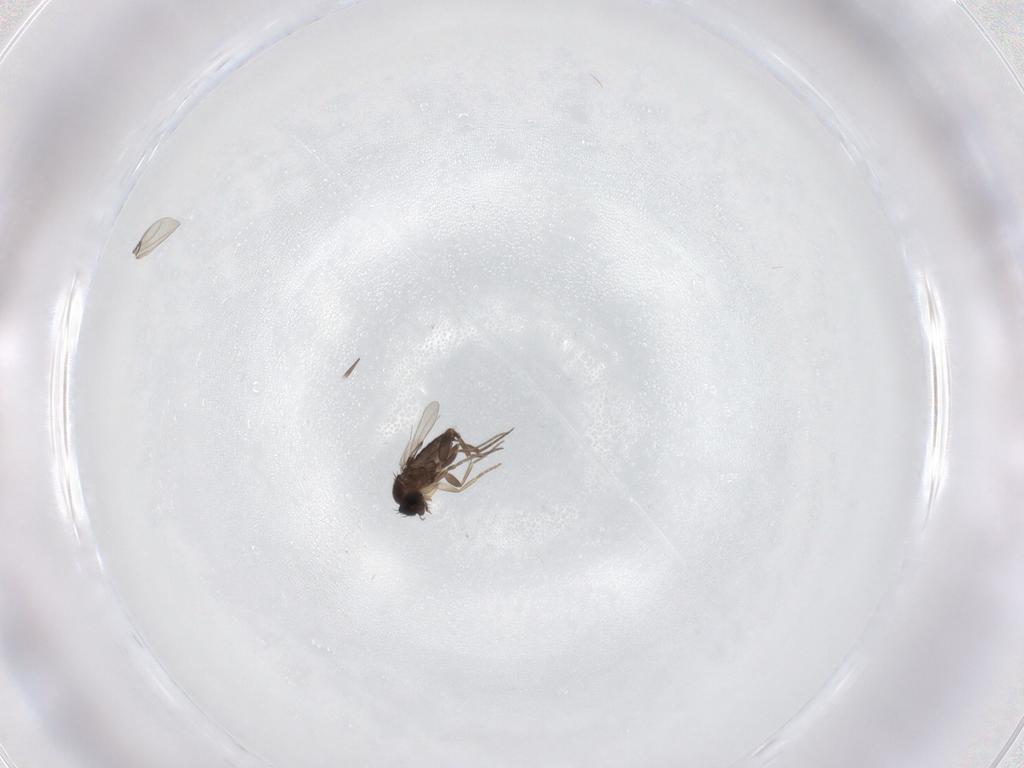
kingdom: Animalia
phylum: Arthropoda
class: Insecta
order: Diptera
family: Phoridae
